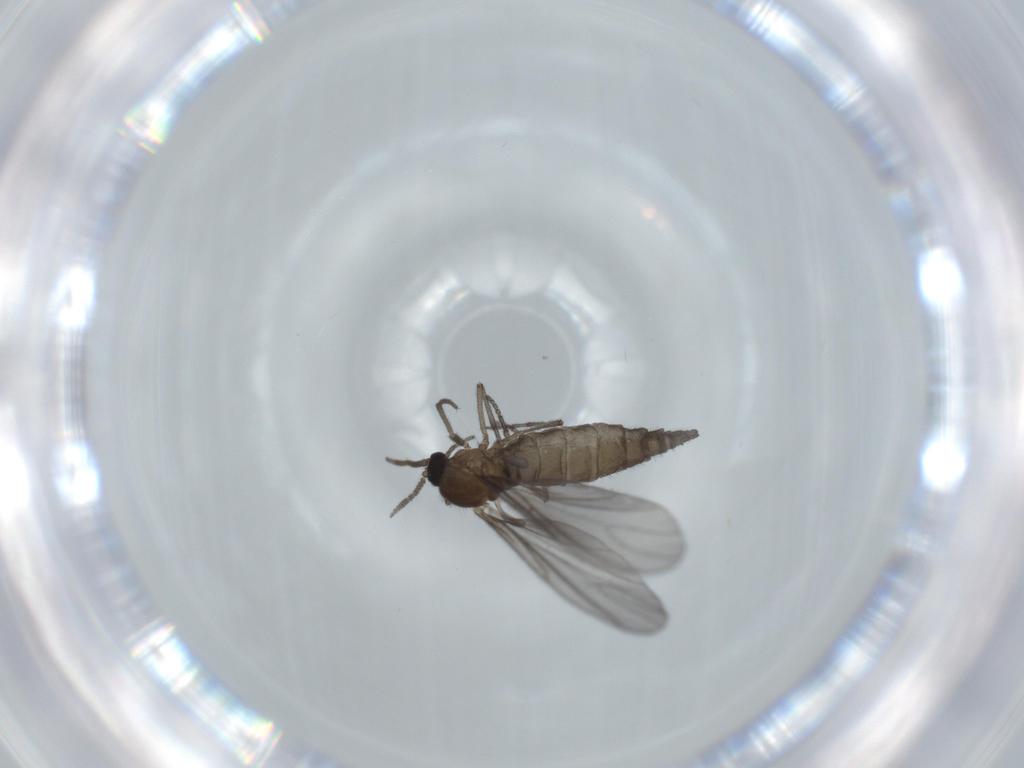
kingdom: Animalia
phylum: Arthropoda
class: Insecta
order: Diptera
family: Sciaridae
